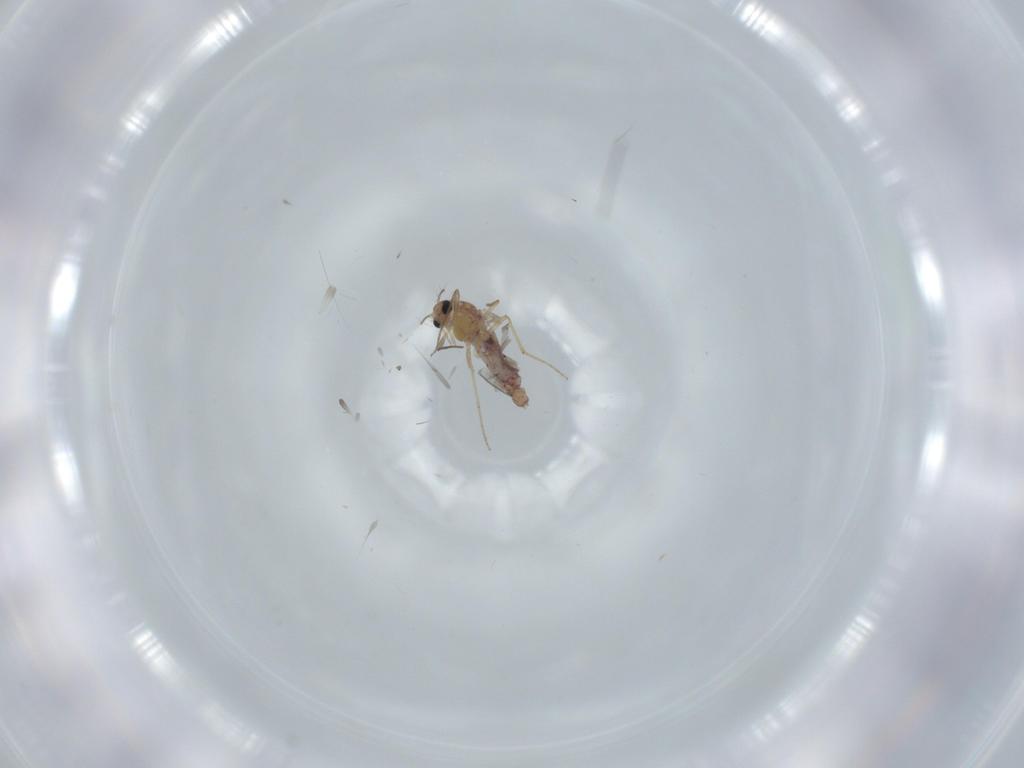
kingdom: Animalia
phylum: Arthropoda
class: Insecta
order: Diptera
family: Chironomidae
